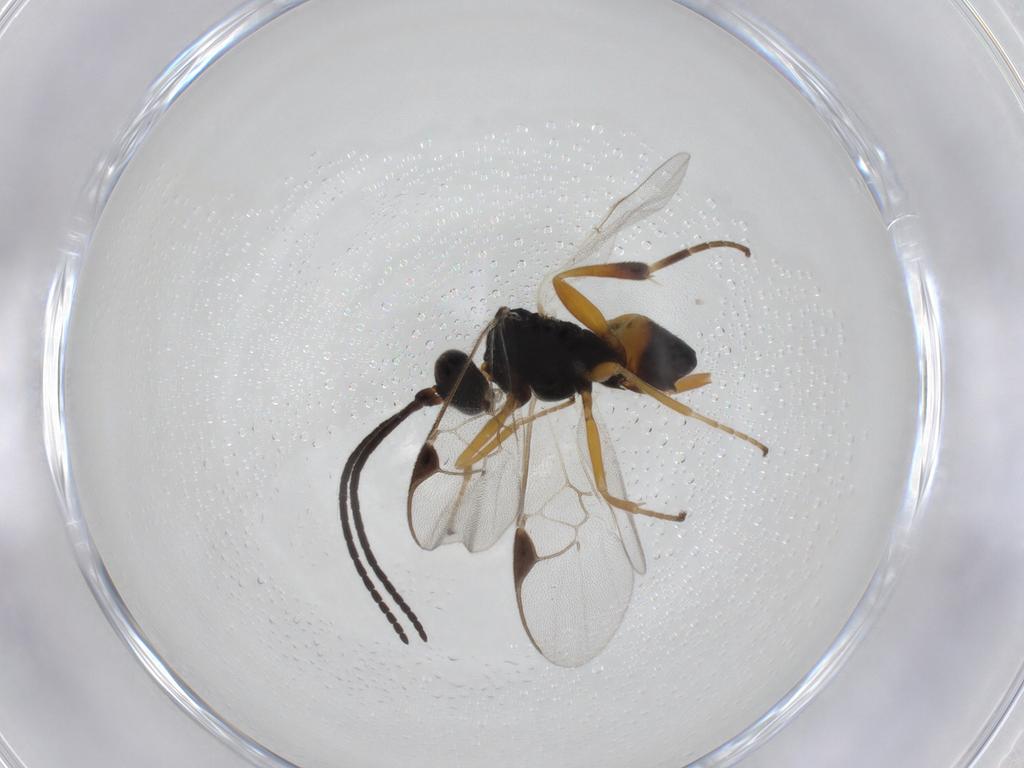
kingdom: Animalia
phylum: Arthropoda
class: Insecta
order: Hymenoptera
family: Braconidae
